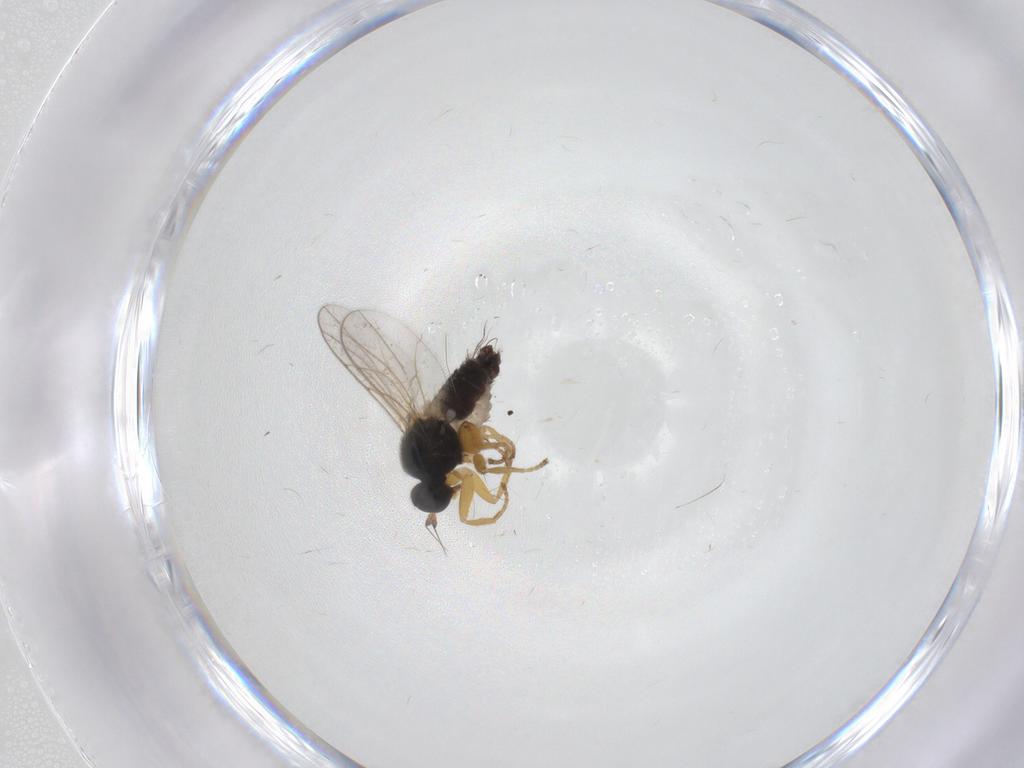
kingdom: Animalia
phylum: Arthropoda
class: Insecta
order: Diptera
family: Hybotidae
